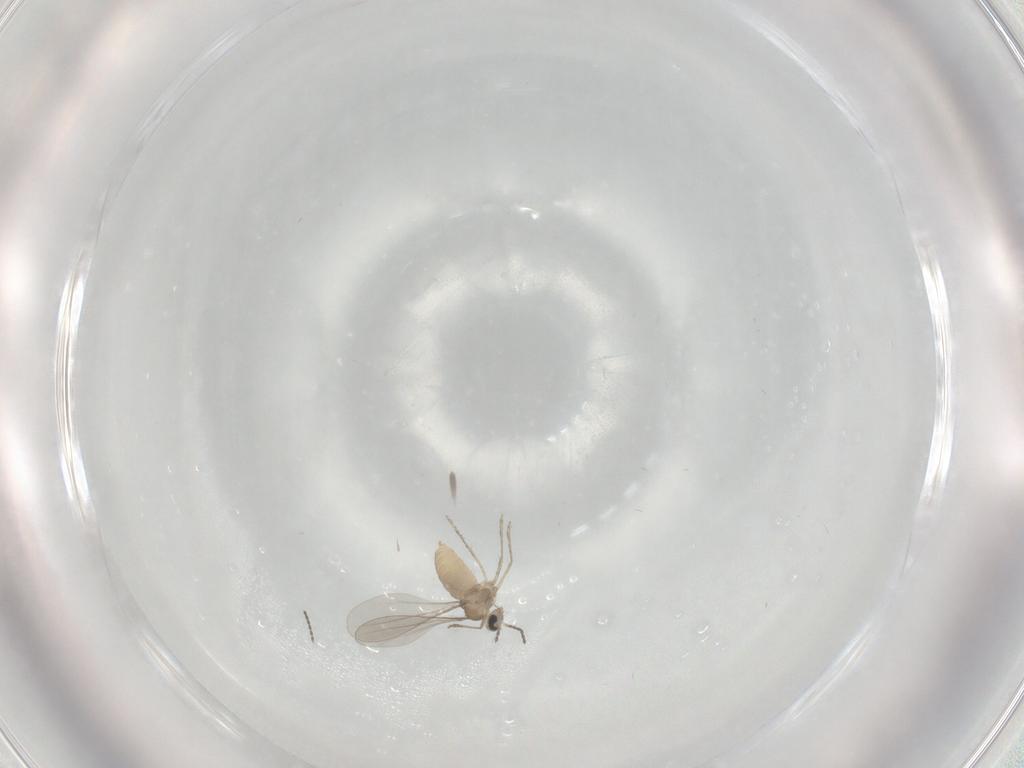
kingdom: Animalia
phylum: Arthropoda
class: Insecta
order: Diptera
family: Cecidomyiidae
